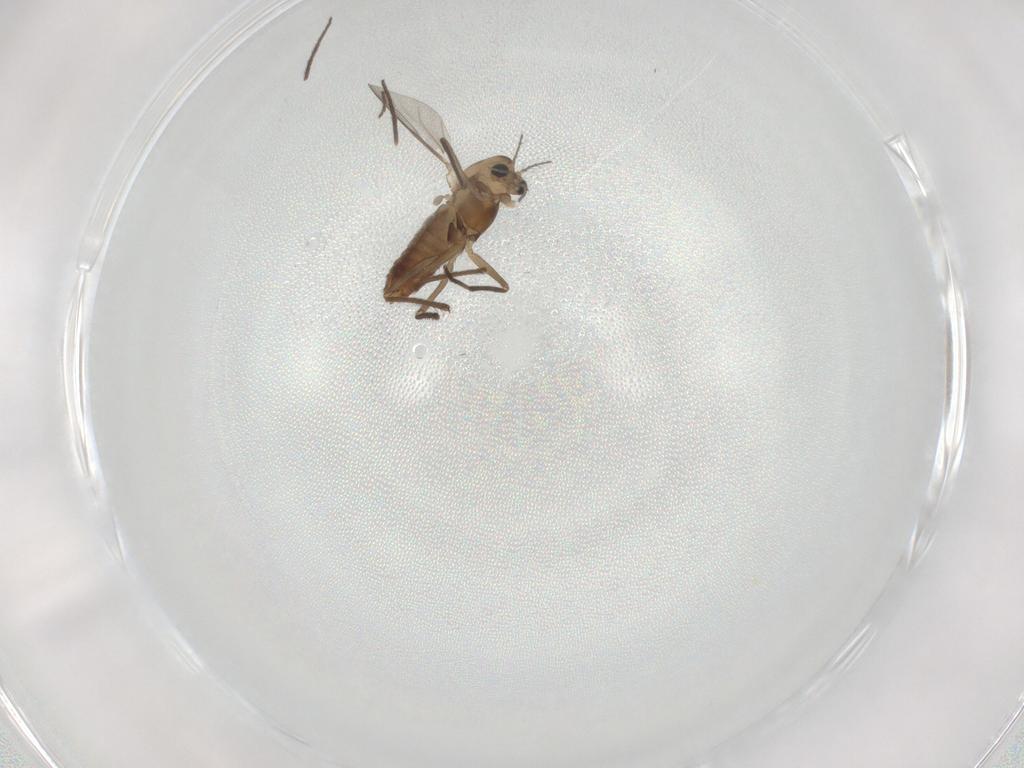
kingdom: Animalia
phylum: Arthropoda
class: Insecta
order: Diptera
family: Chironomidae
